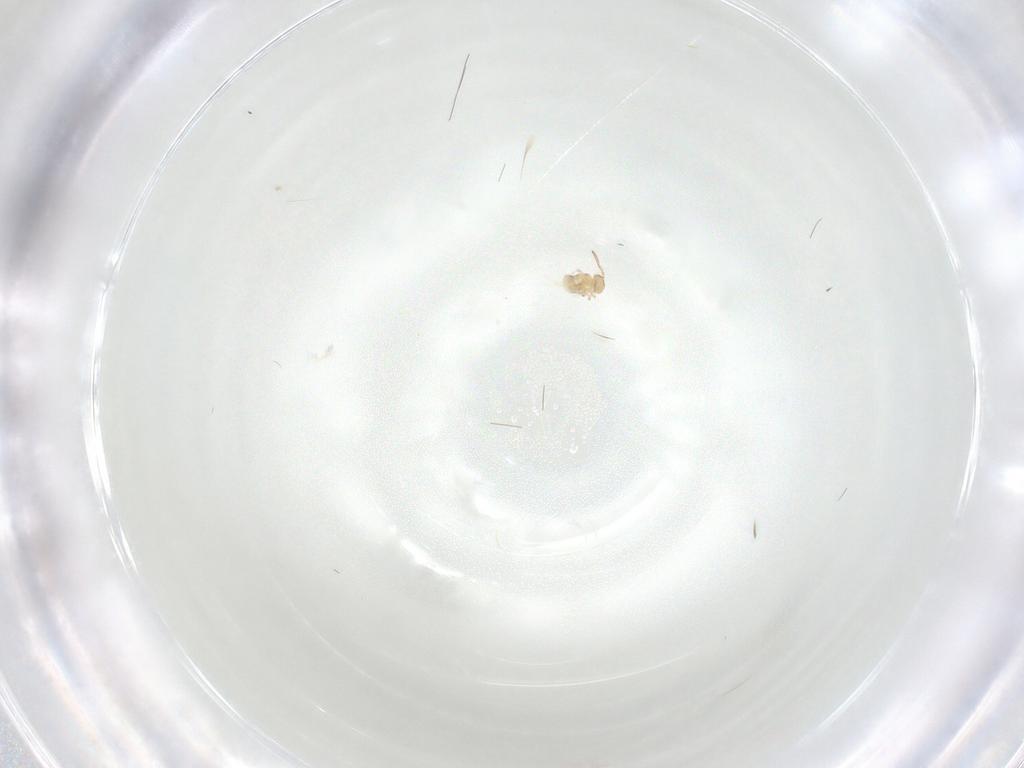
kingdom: Animalia
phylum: Arthropoda
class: Collembola
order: Symphypleona
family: Bourletiellidae
